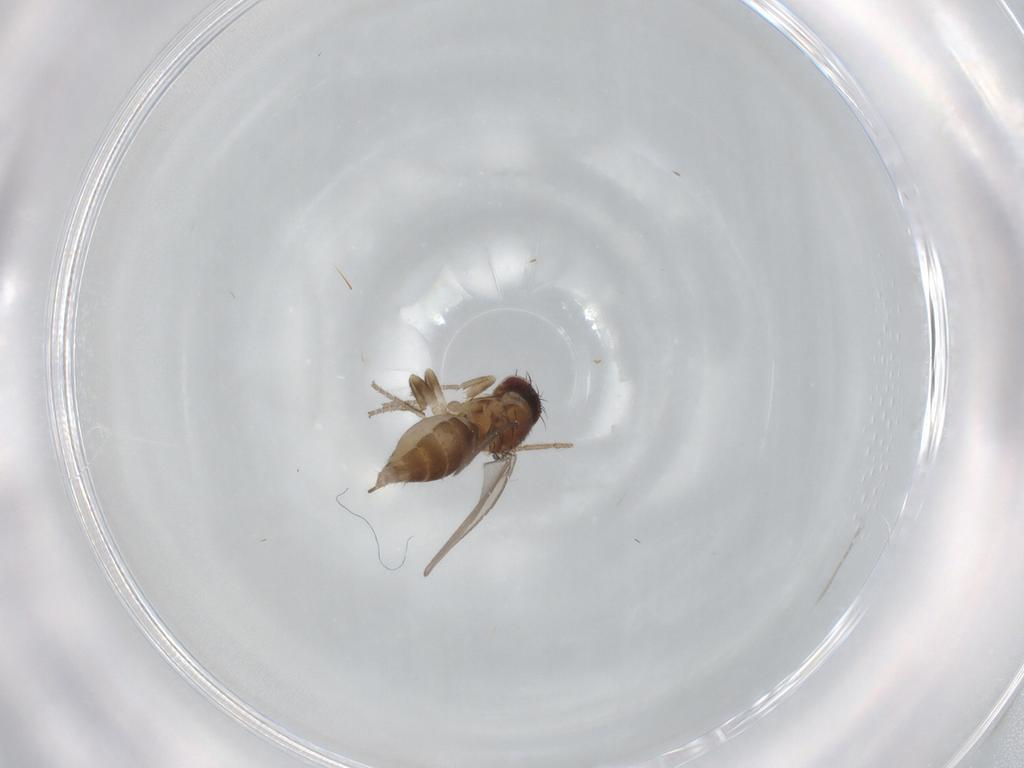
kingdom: Animalia
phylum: Arthropoda
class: Insecta
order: Diptera
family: Milichiidae
